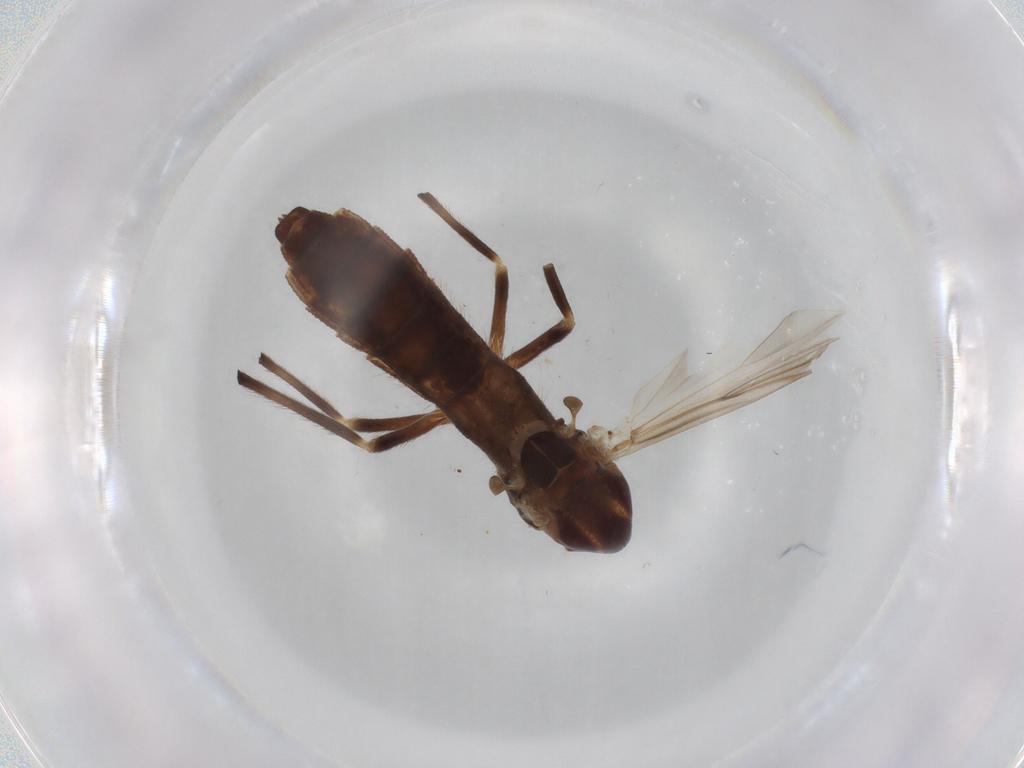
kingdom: Animalia
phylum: Arthropoda
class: Insecta
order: Diptera
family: Chironomidae
